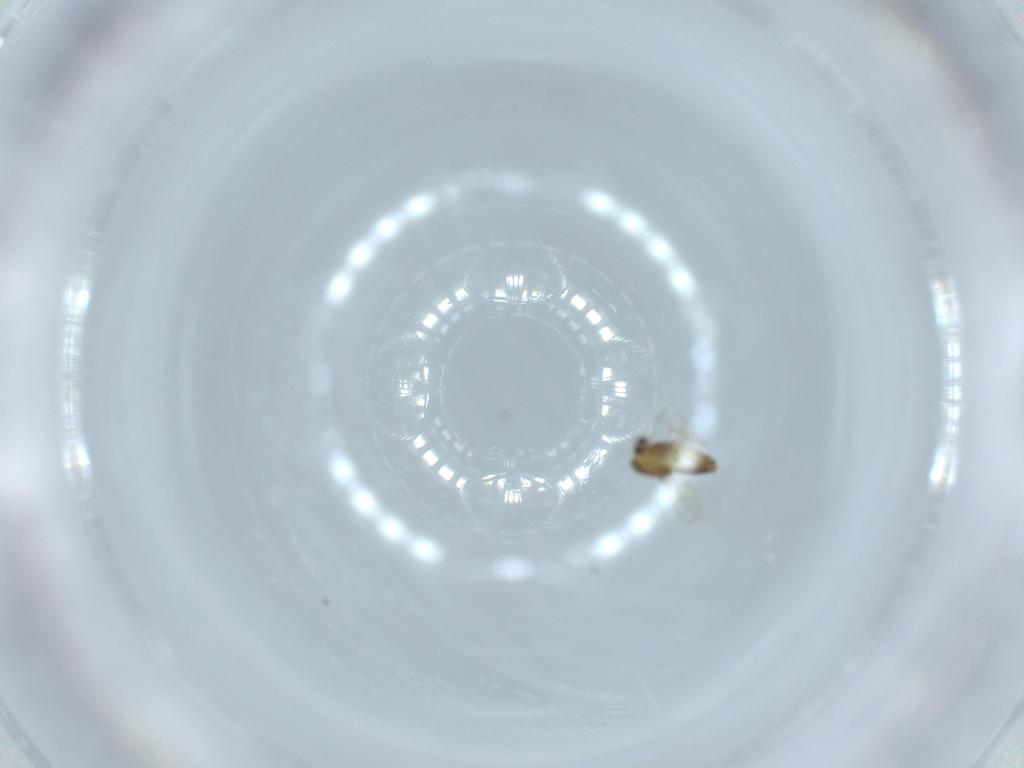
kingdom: Animalia
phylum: Arthropoda
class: Insecta
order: Diptera
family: Chironomidae
